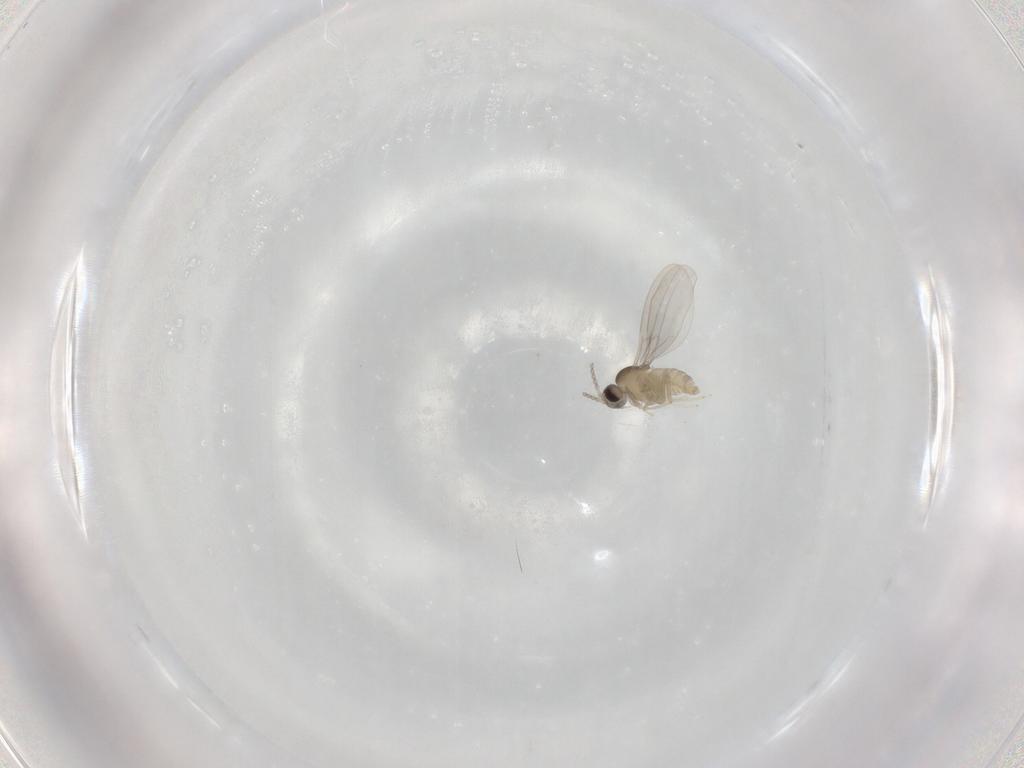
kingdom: Animalia
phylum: Arthropoda
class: Insecta
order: Diptera
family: Cecidomyiidae
